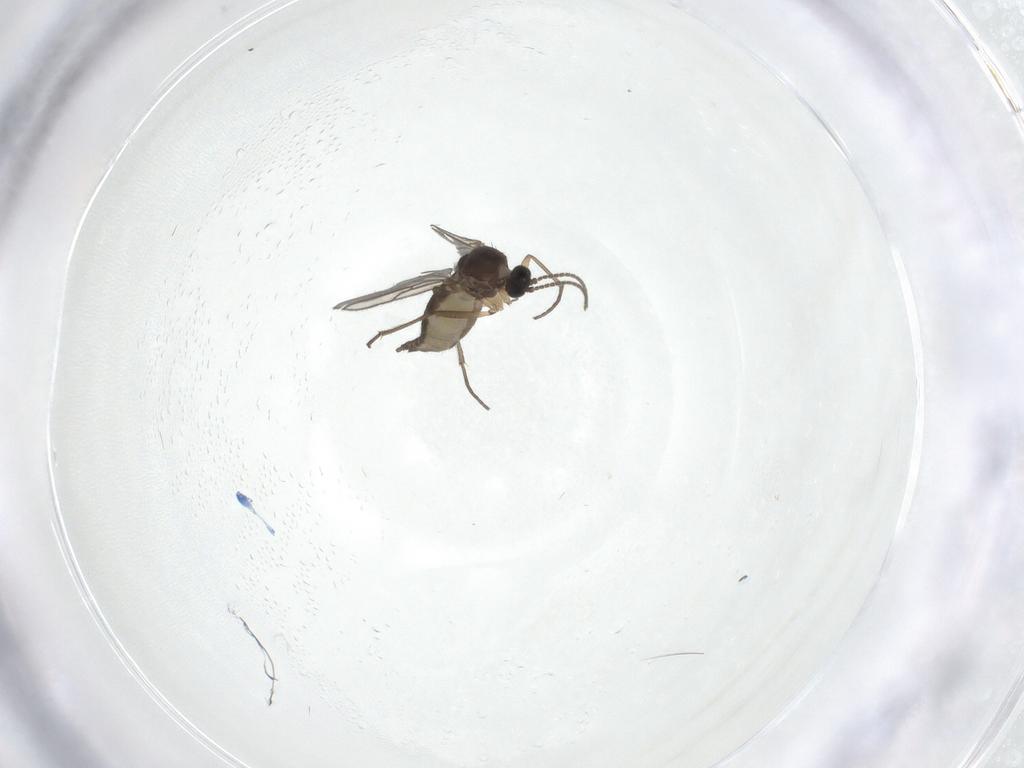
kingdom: Animalia
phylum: Arthropoda
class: Insecta
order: Diptera
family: Sciaridae
